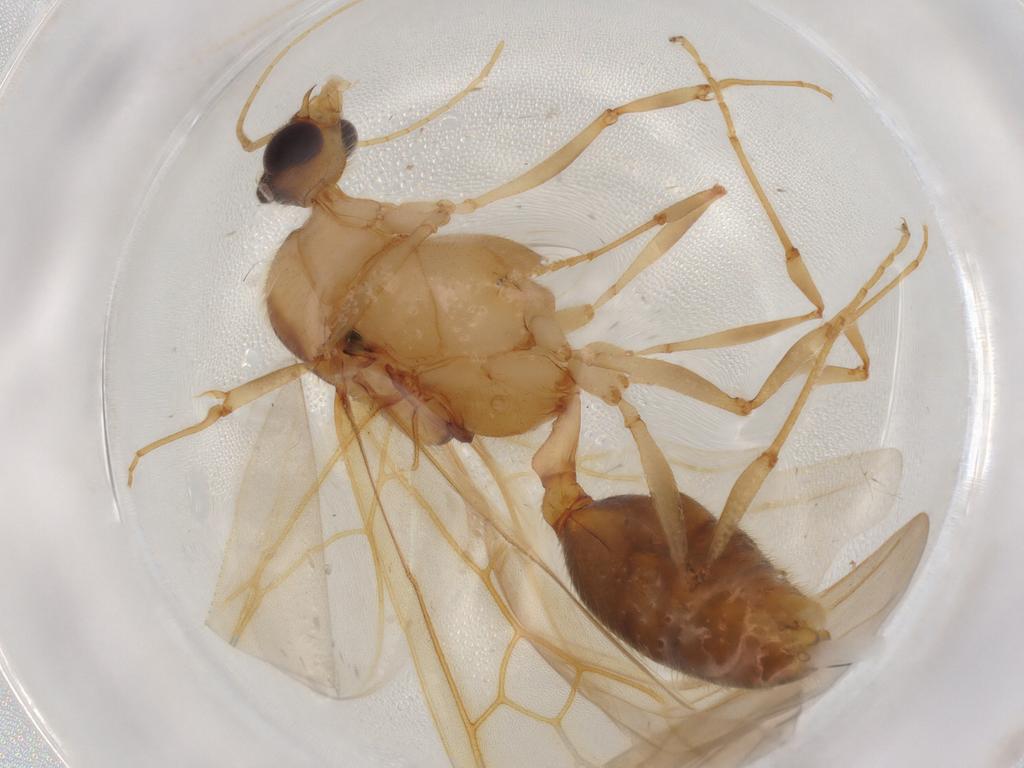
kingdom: Animalia
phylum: Arthropoda
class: Insecta
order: Hymenoptera
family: Formicidae
